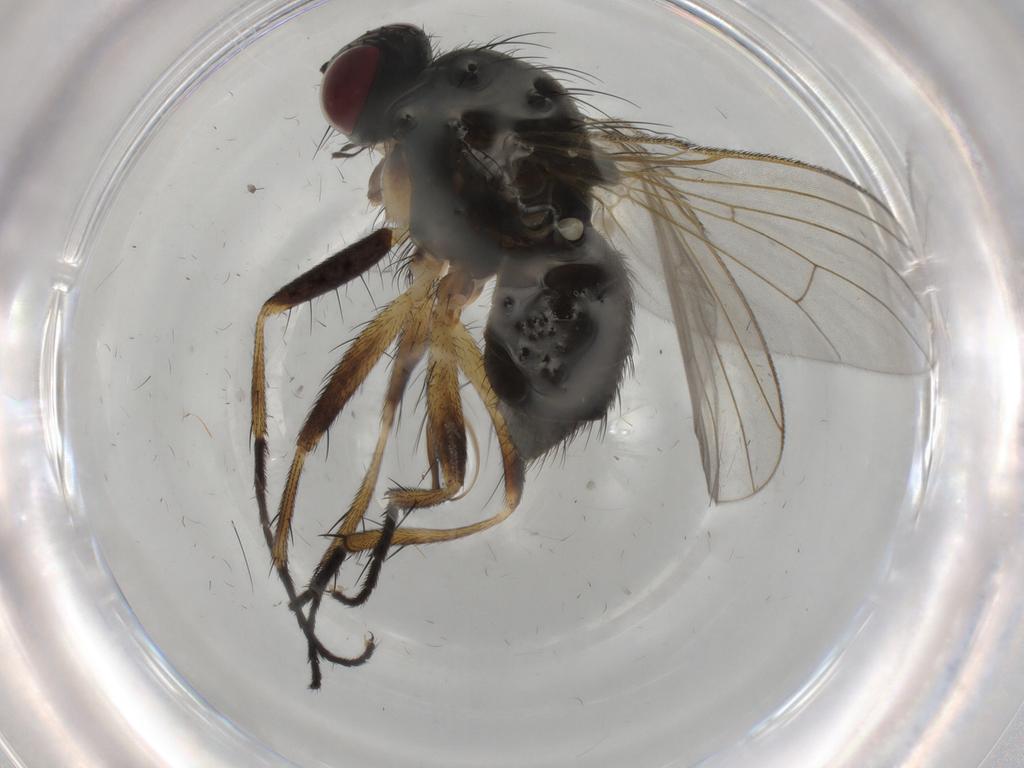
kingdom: Animalia
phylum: Arthropoda
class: Insecta
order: Diptera
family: Sciaridae
